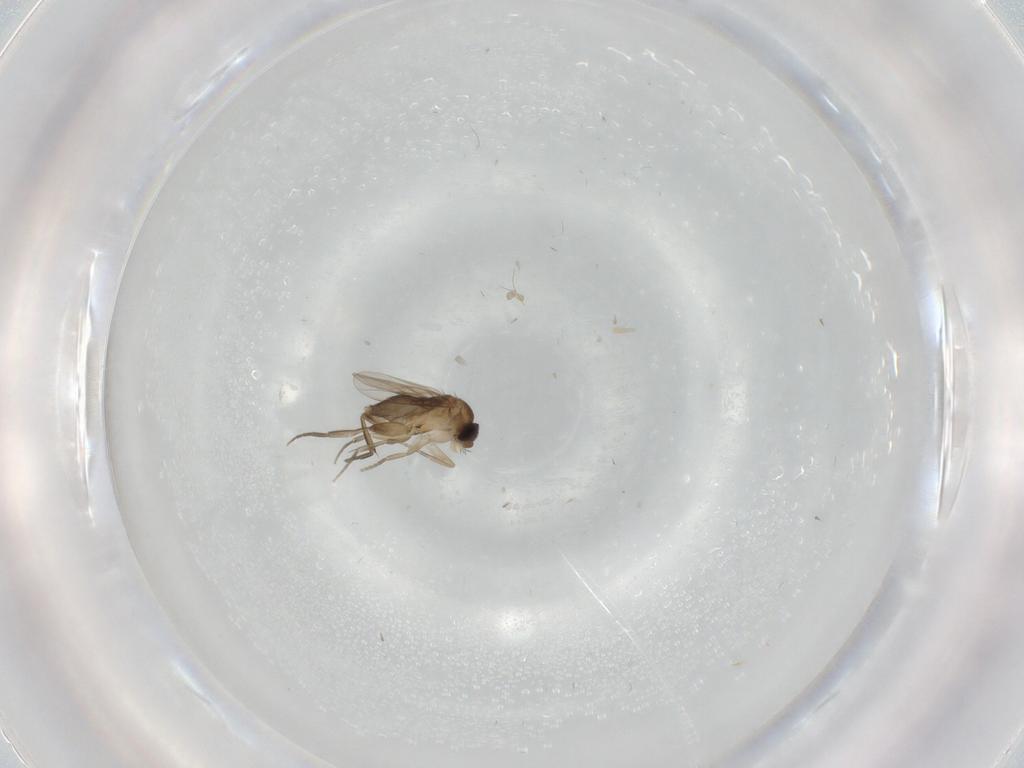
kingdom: Animalia
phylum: Arthropoda
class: Insecta
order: Diptera
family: Phoridae
